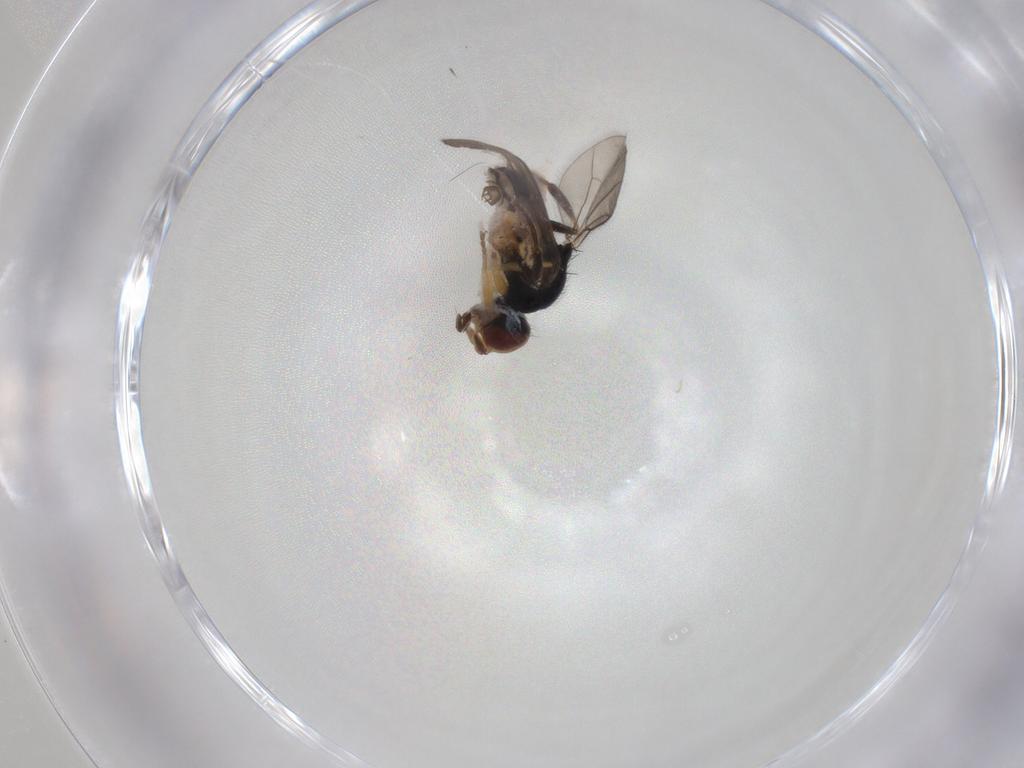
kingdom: Animalia
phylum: Arthropoda
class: Insecta
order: Diptera
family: Chloropidae
